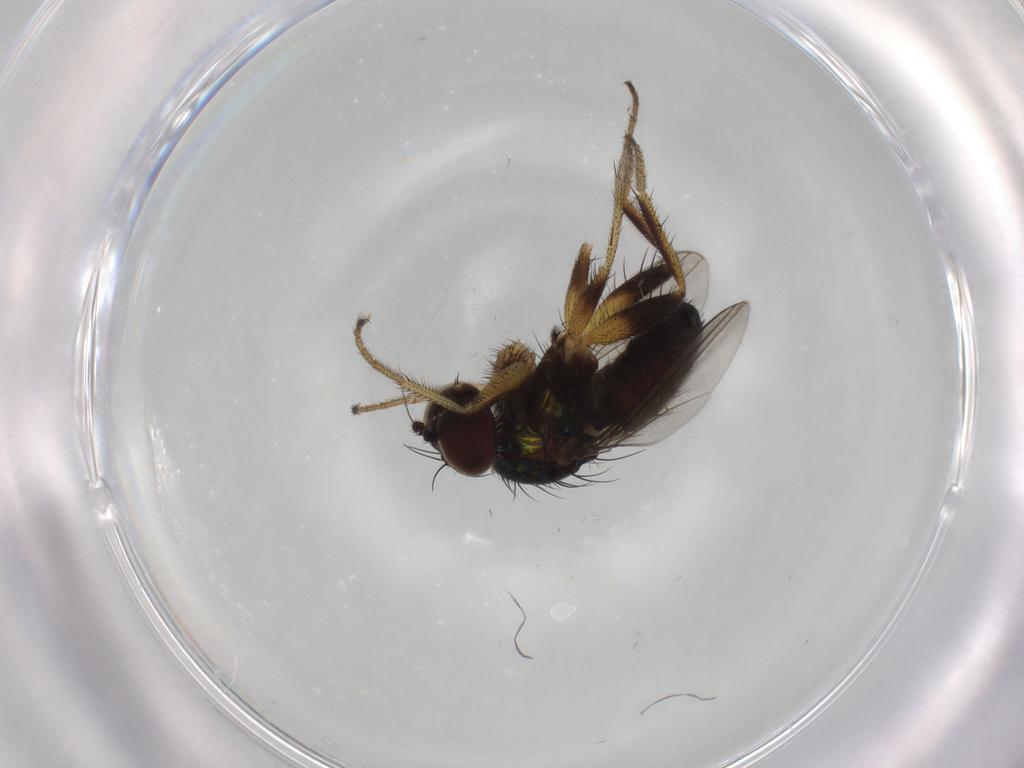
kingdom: Animalia
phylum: Arthropoda
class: Insecta
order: Diptera
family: Dolichopodidae
